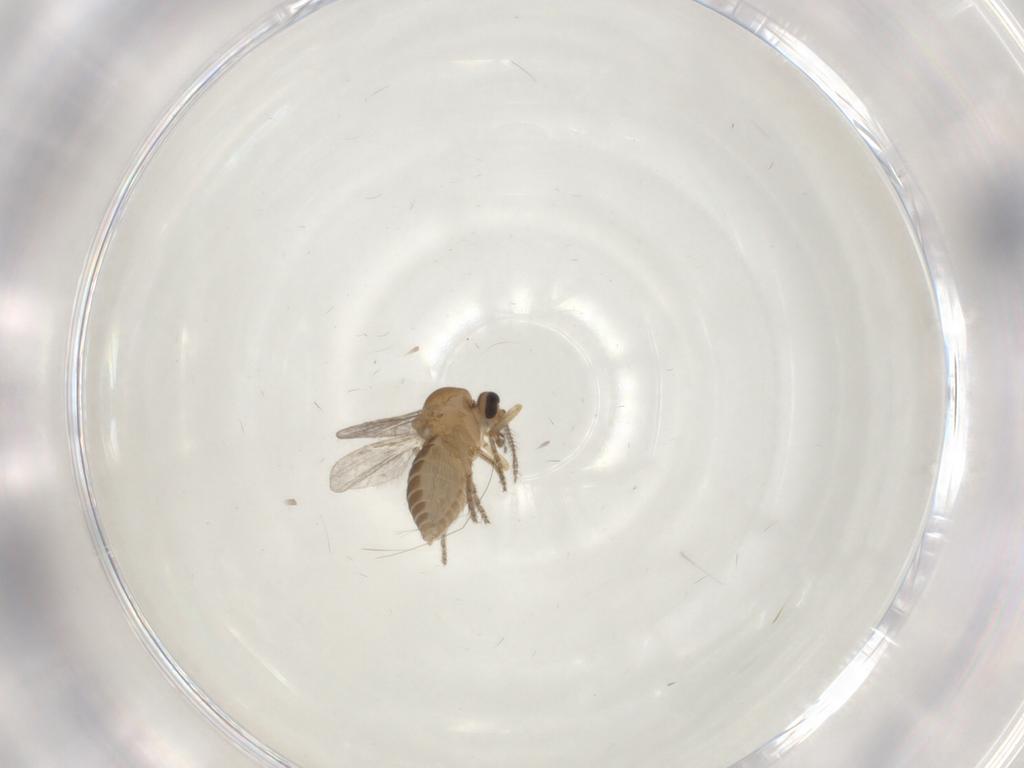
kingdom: Animalia
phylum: Arthropoda
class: Insecta
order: Diptera
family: Ceratopogonidae
